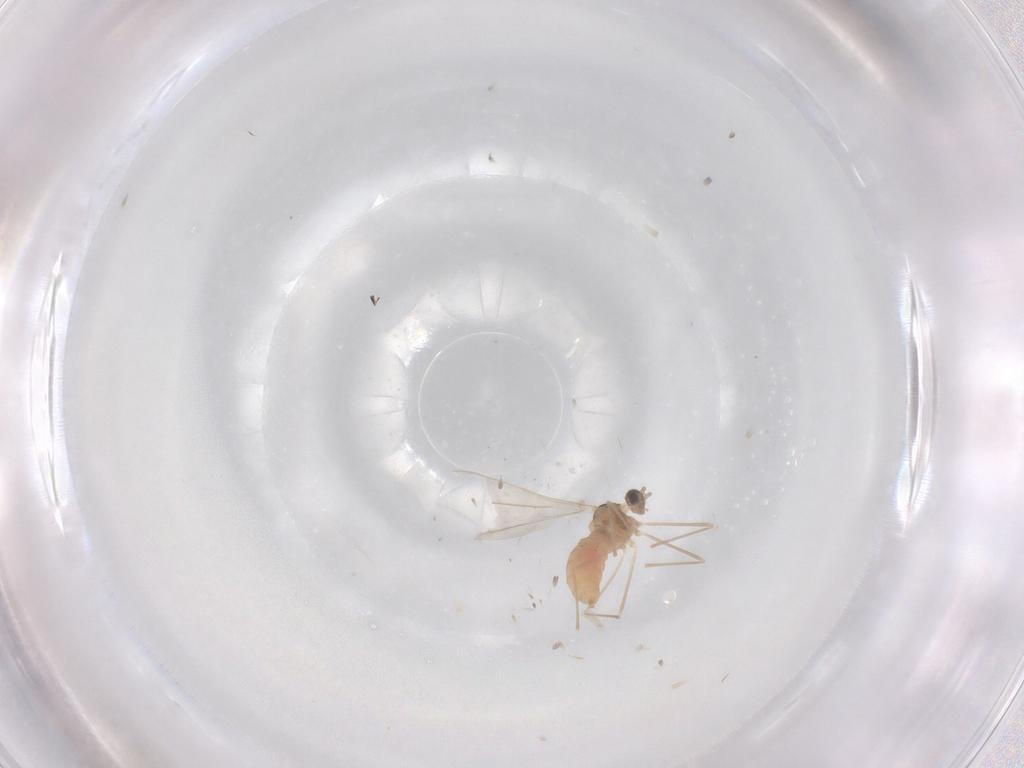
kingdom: Animalia
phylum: Arthropoda
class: Insecta
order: Diptera
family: Cecidomyiidae
